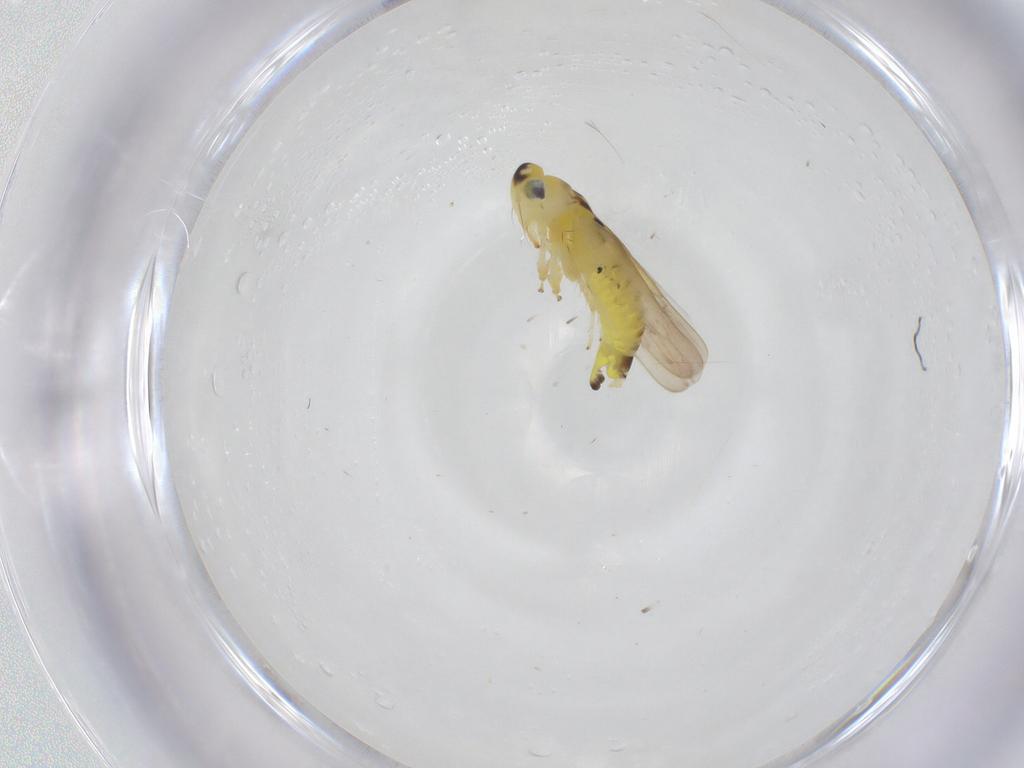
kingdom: Animalia
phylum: Arthropoda
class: Insecta
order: Hemiptera
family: Cicadellidae
